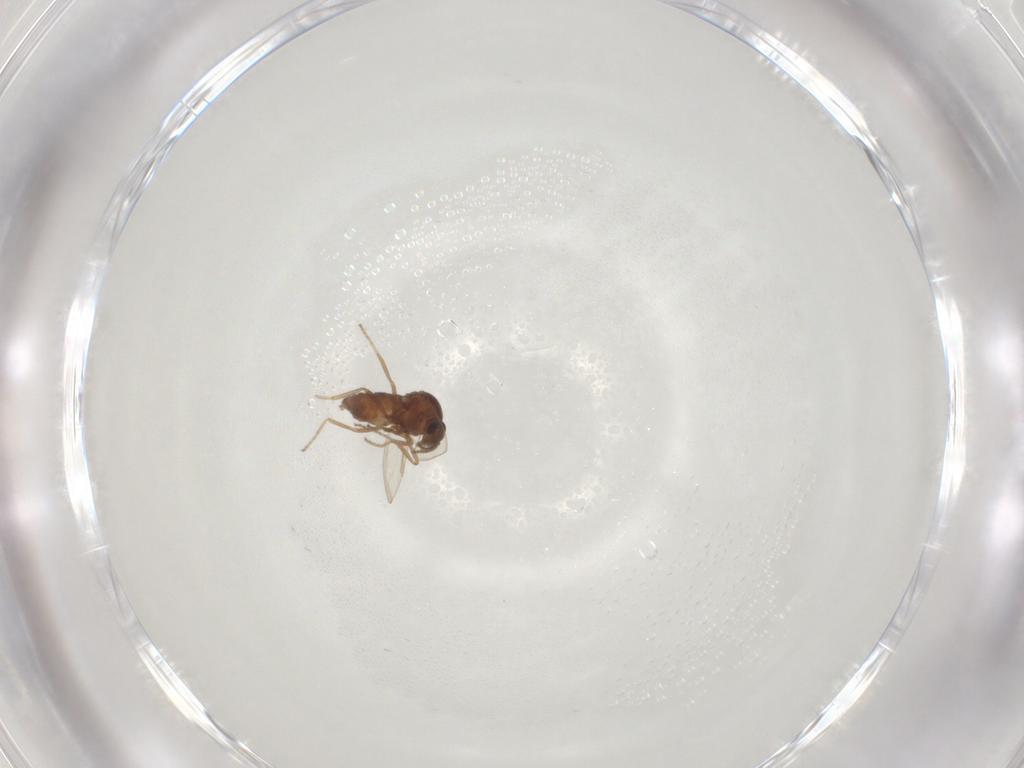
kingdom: Animalia
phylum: Arthropoda
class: Insecta
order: Diptera
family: Ceratopogonidae
